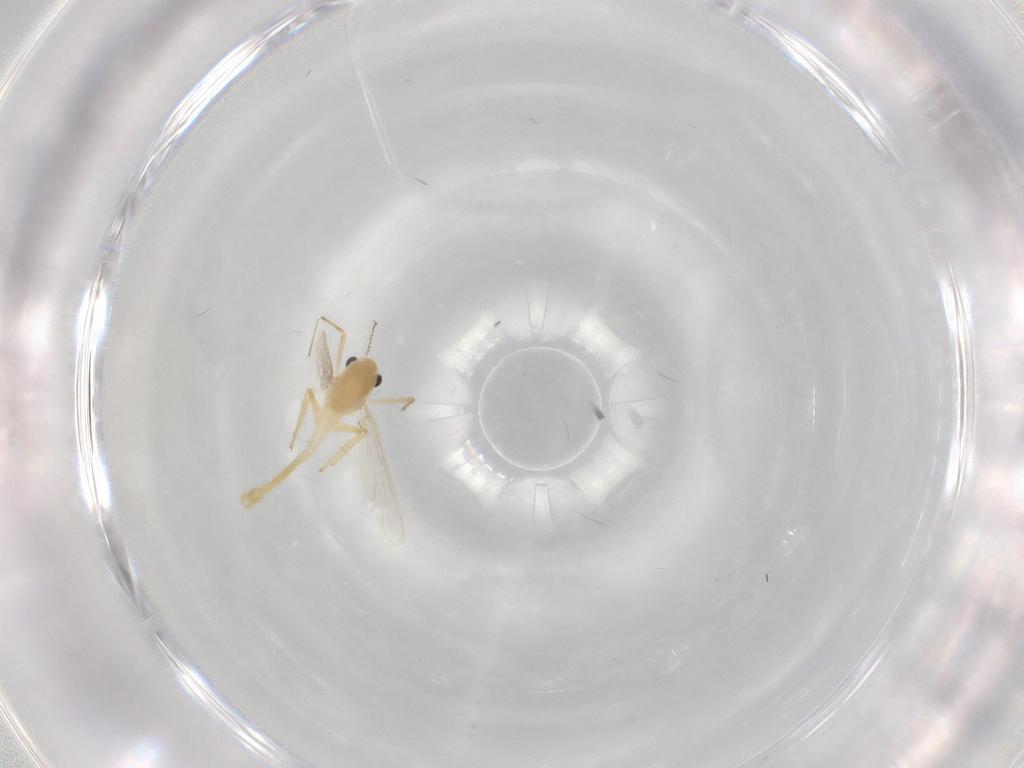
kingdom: Animalia
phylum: Arthropoda
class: Insecta
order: Diptera
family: Chironomidae
